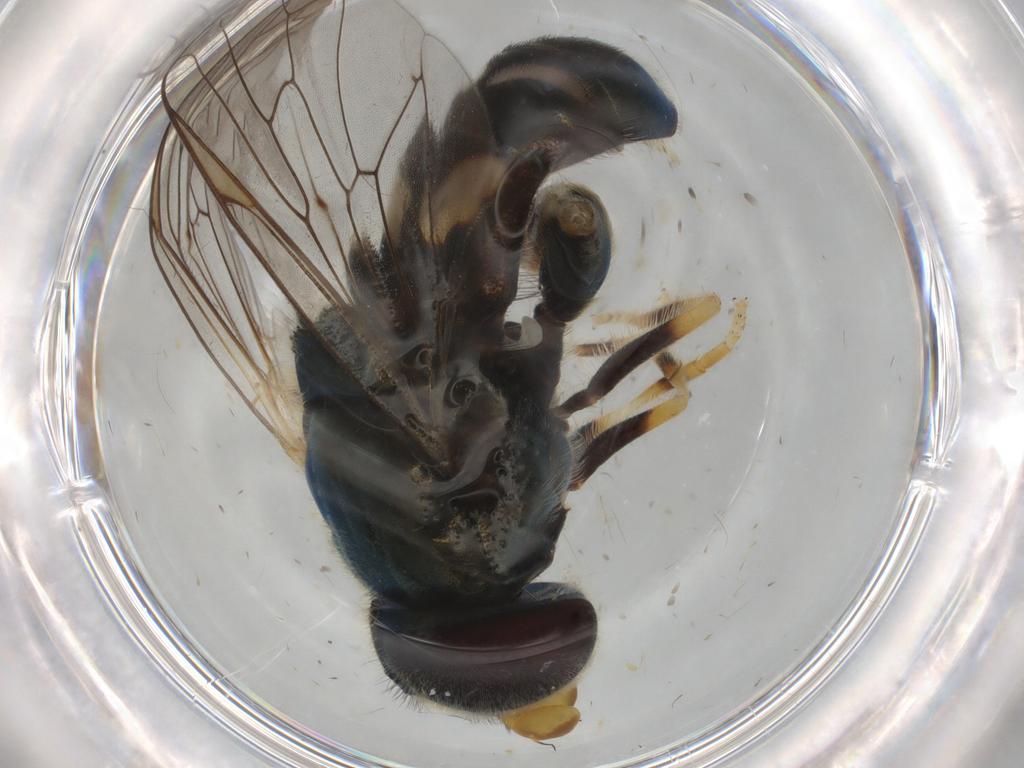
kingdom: Animalia
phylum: Arthropoda
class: Insecta
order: Diptera
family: Syrphidae
